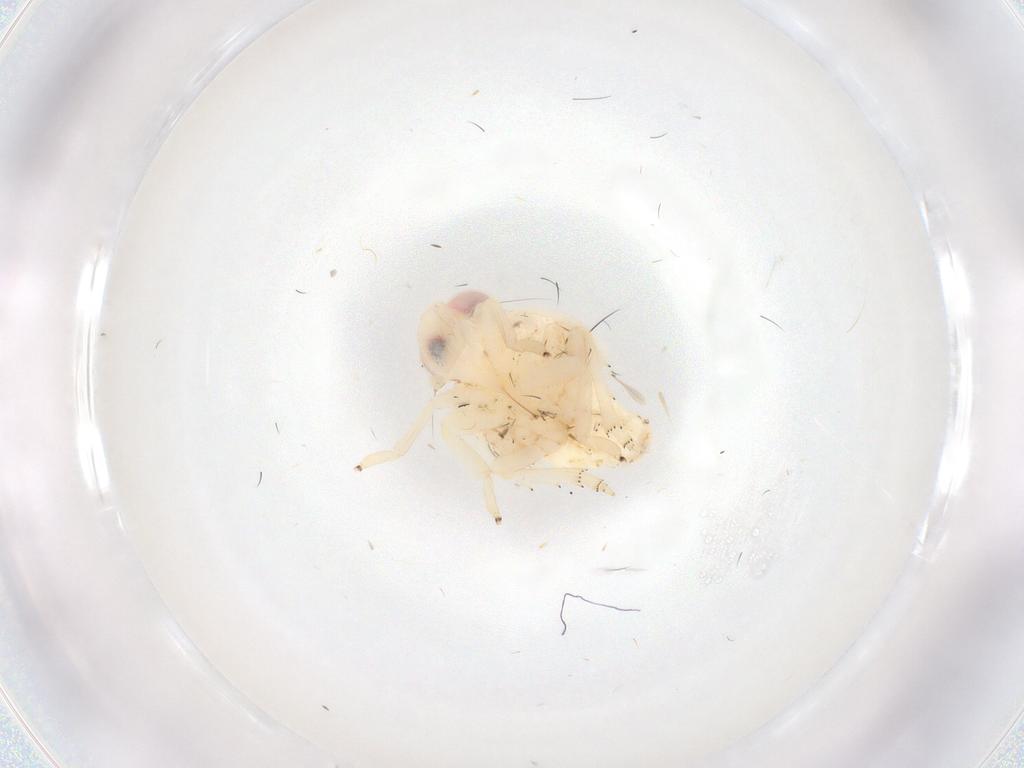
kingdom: Animalia
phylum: Arthropoda
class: Insecta
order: Hemiptera
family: Nogodinidae
